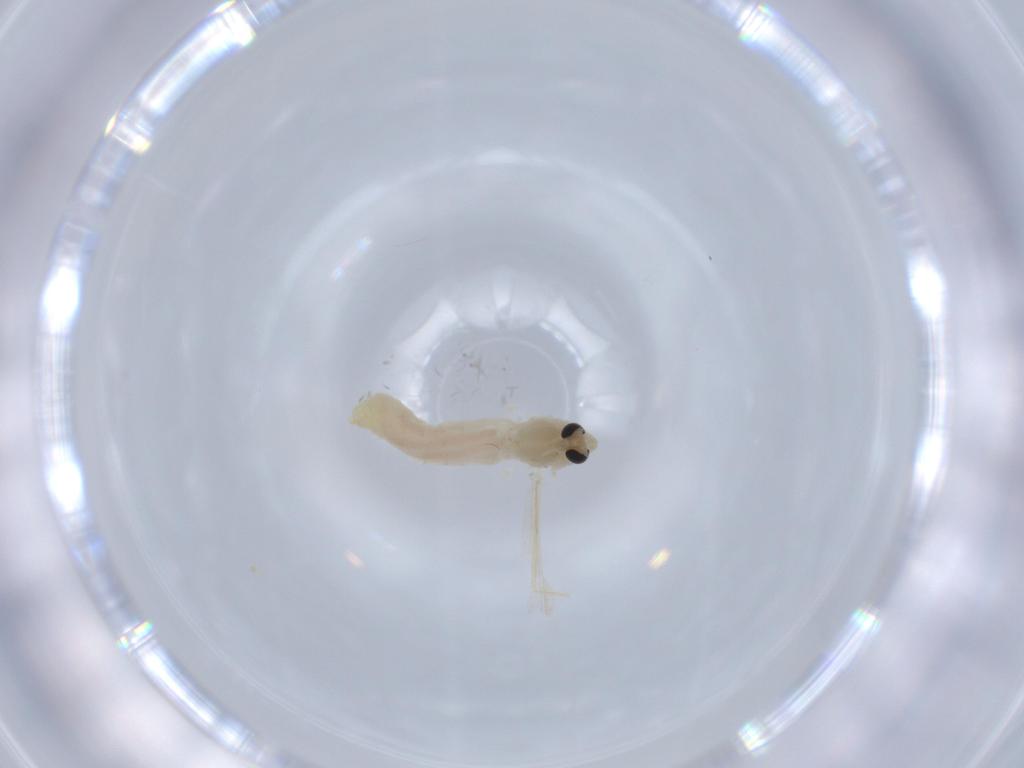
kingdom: Animalia
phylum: Arthropoda
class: Insecta
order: Diptera
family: Chironomidae
